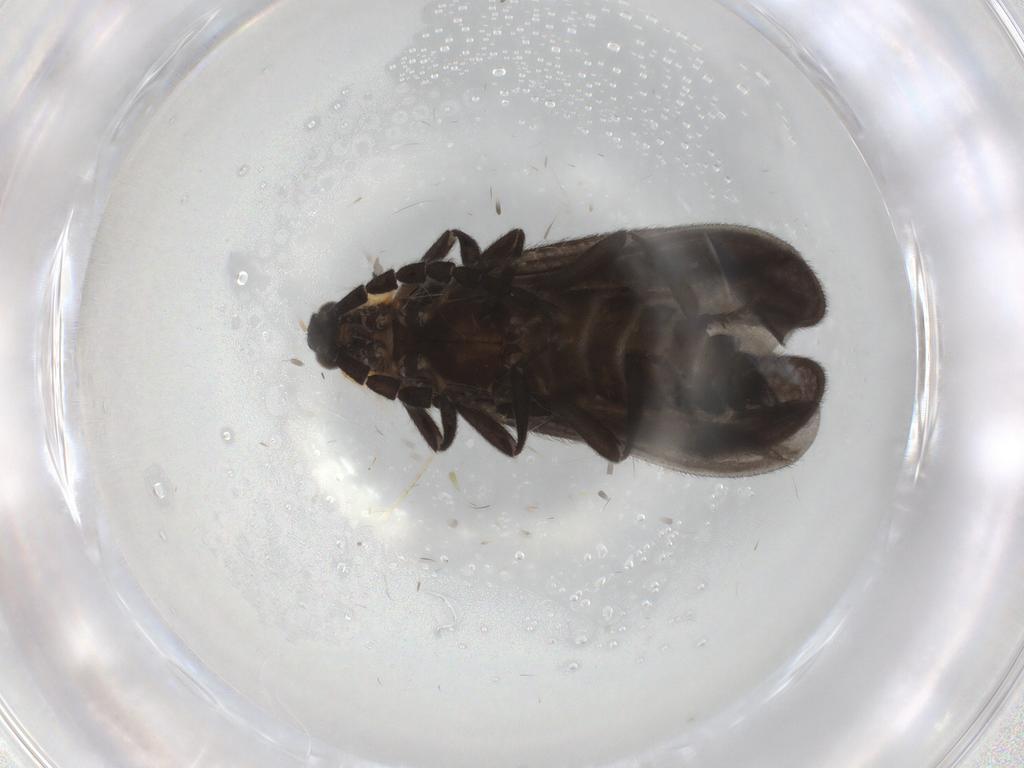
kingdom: Animalia
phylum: Arthropoda
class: Insecta
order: Coleoptera
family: Lycidae
